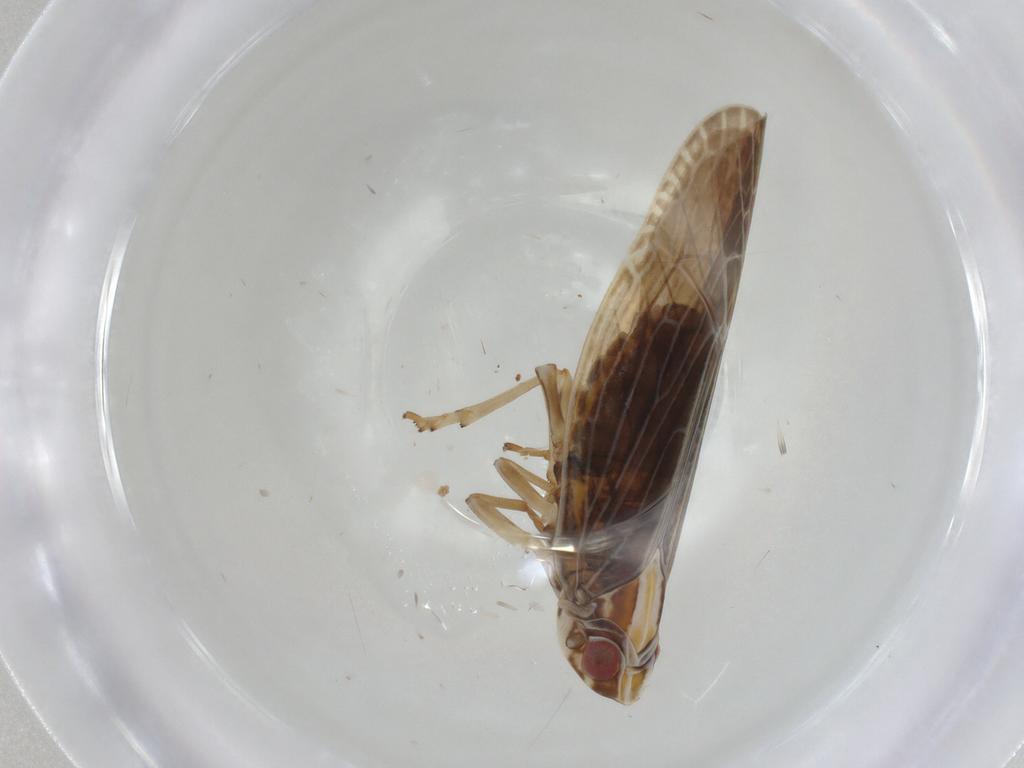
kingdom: Animalia
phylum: Arthropoda
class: Insecta
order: Hemiptera
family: Achilidae
